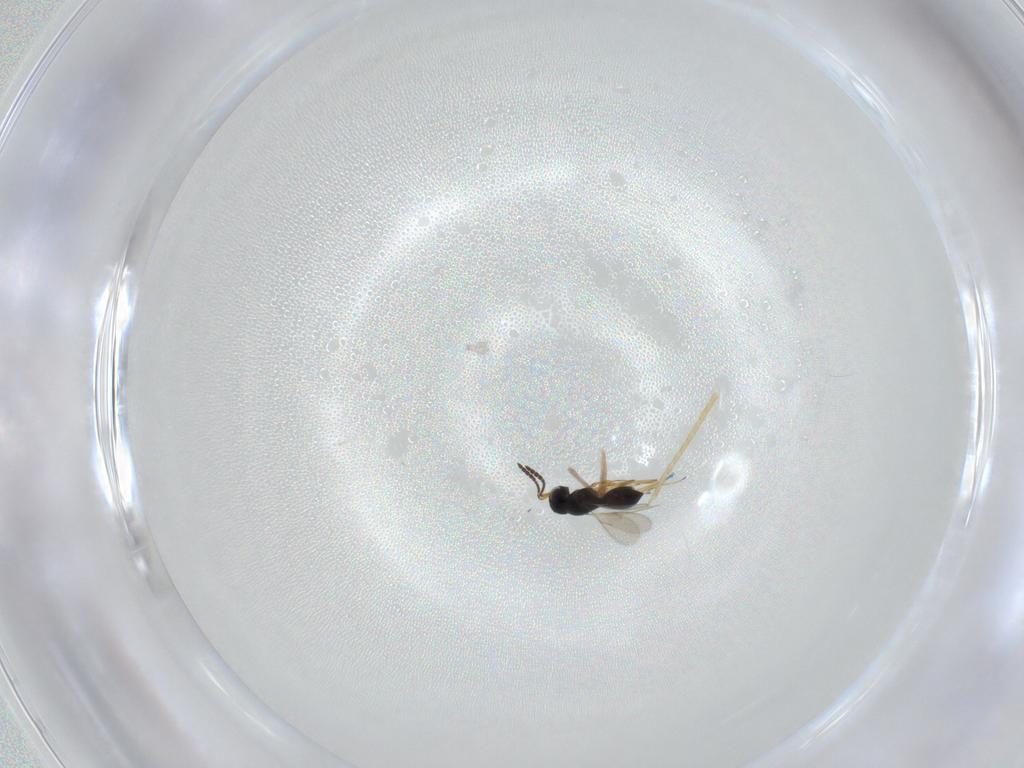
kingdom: Animalia
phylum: Arthropoda
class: Insecta
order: Hymenoptera
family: Scelionidae
